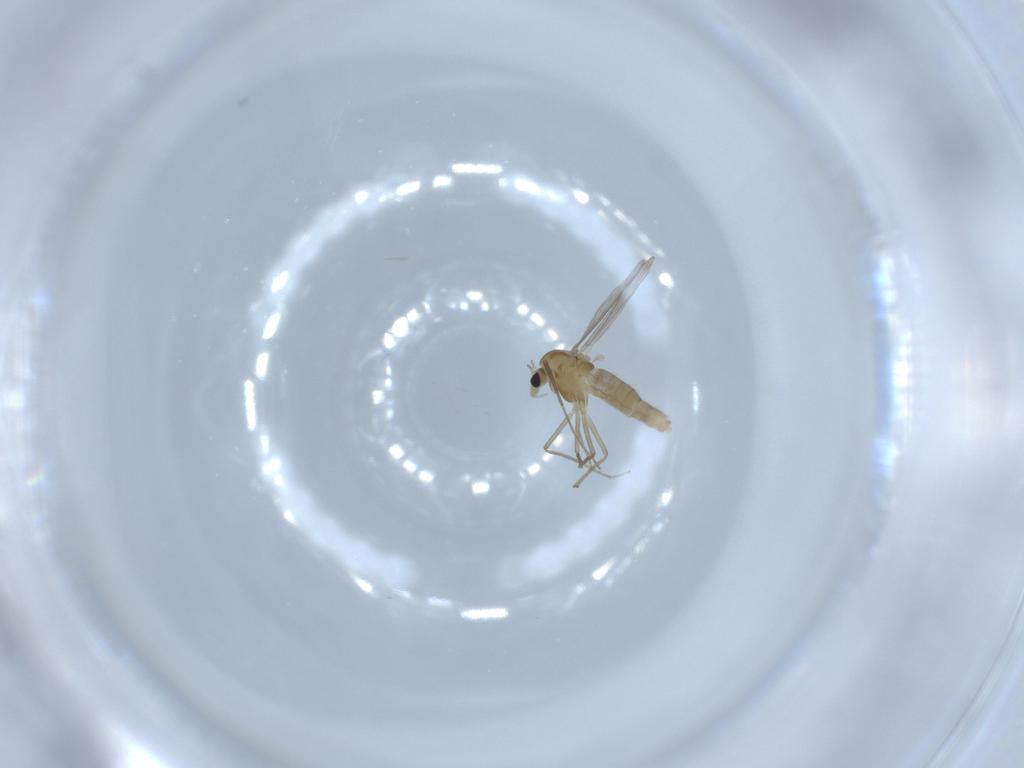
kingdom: Animalia
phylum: Arthropoda
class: Insecta
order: Diptera
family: Chironomidae
